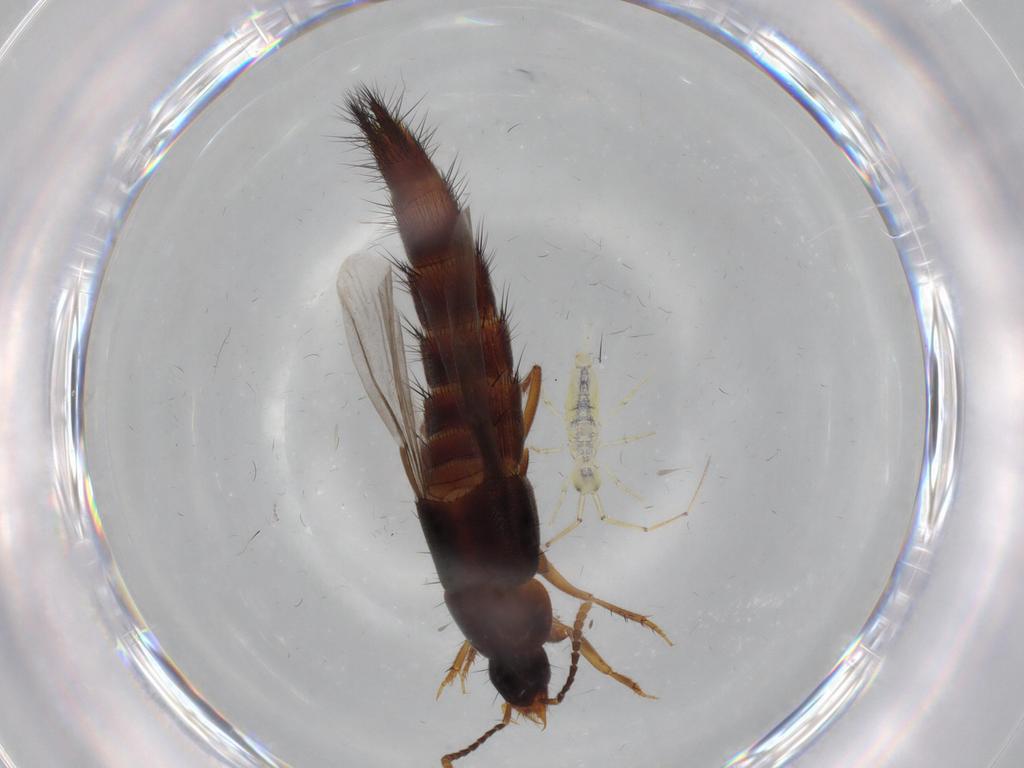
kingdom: Animalia
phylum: Arthropoda
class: Insecta
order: Coleoptera
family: Staphylinidae
